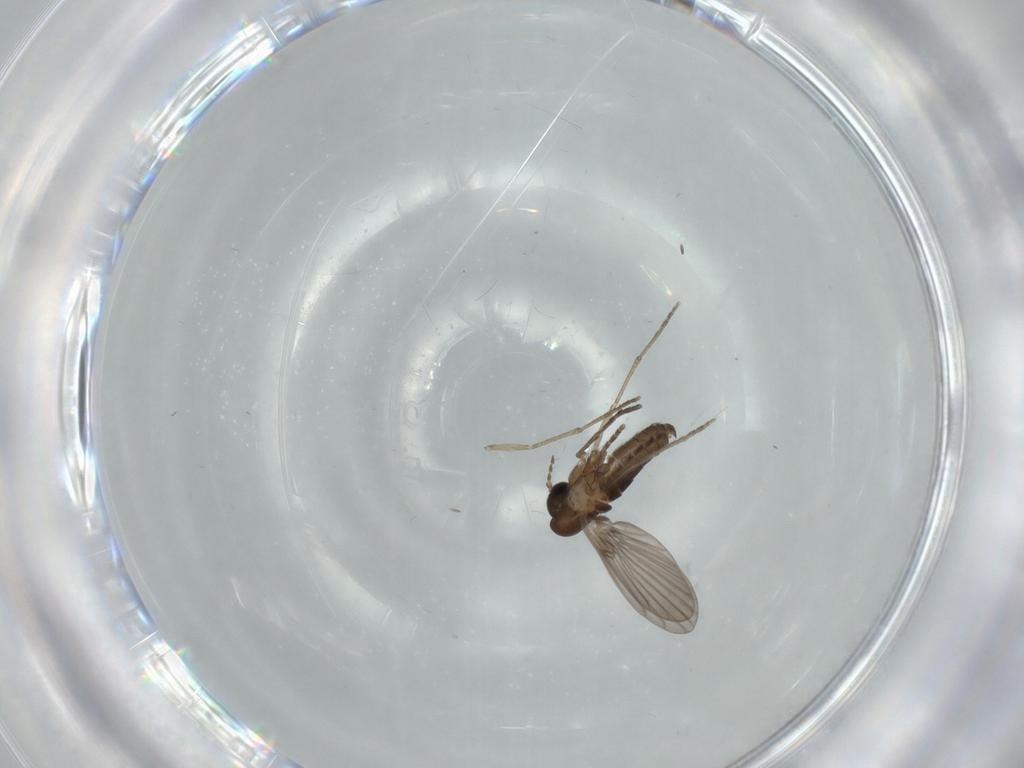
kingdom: Animalia
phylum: Arthropoda
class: Insecta
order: Diptera
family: Psychodidae
